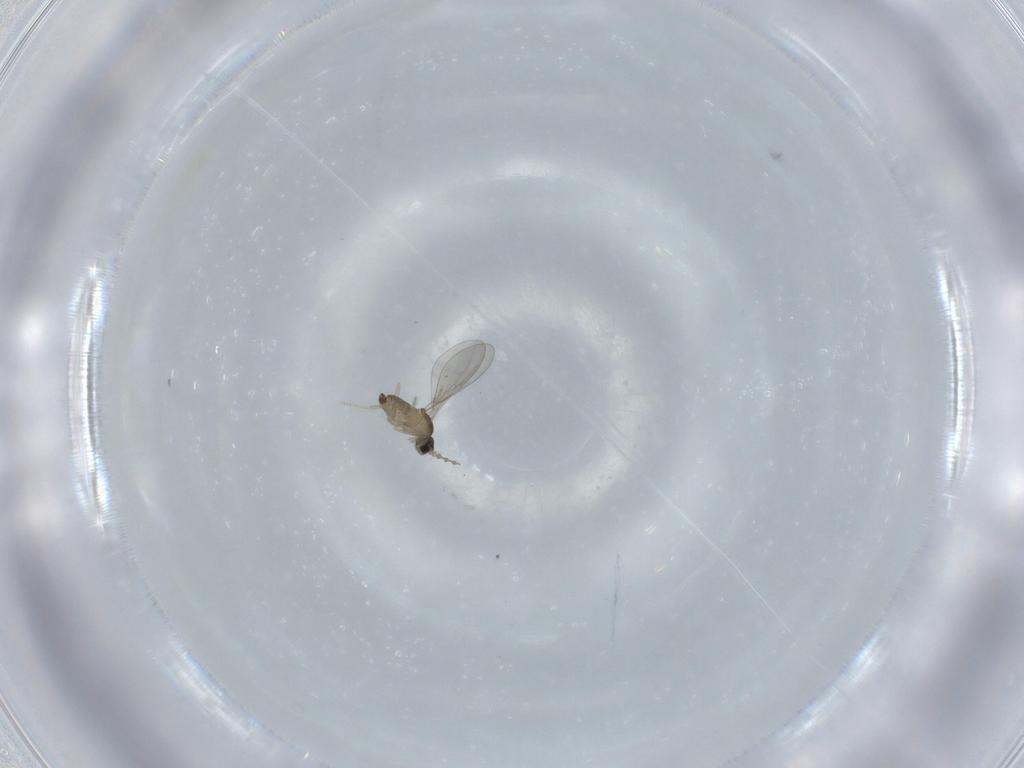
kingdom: Animalia
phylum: Arthropoda
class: Insecta
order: Diptera
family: Cecidomyiidae
